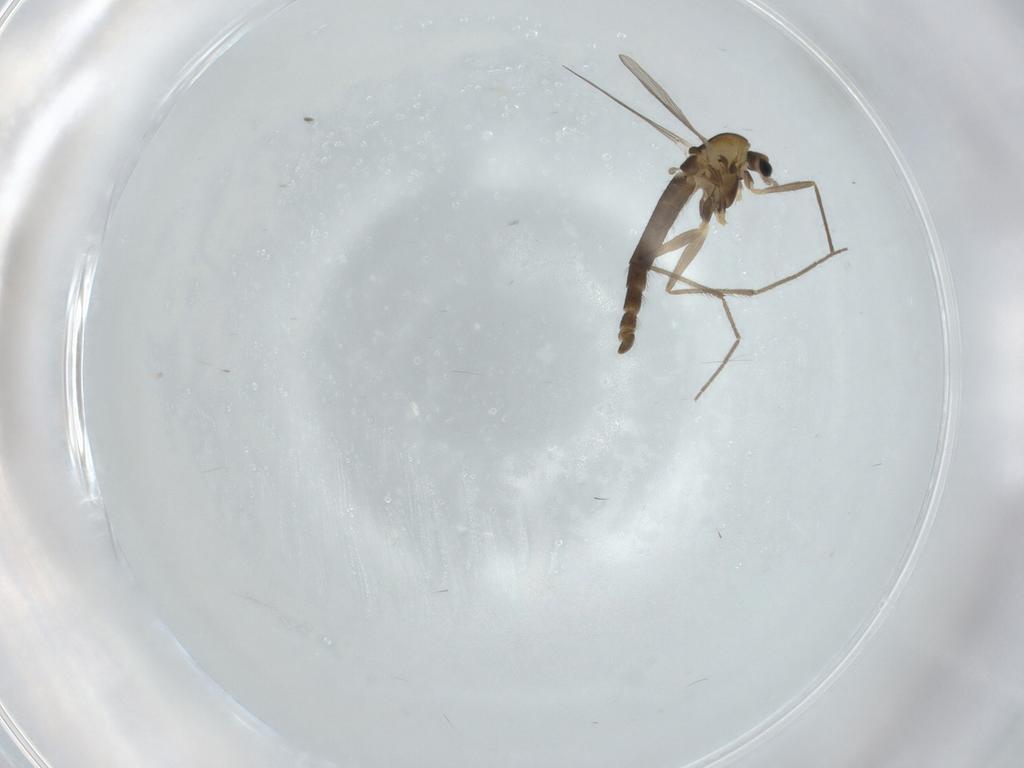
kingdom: Animalia
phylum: Arthropoda
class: Insecta
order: Diptera
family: Chironomidae
